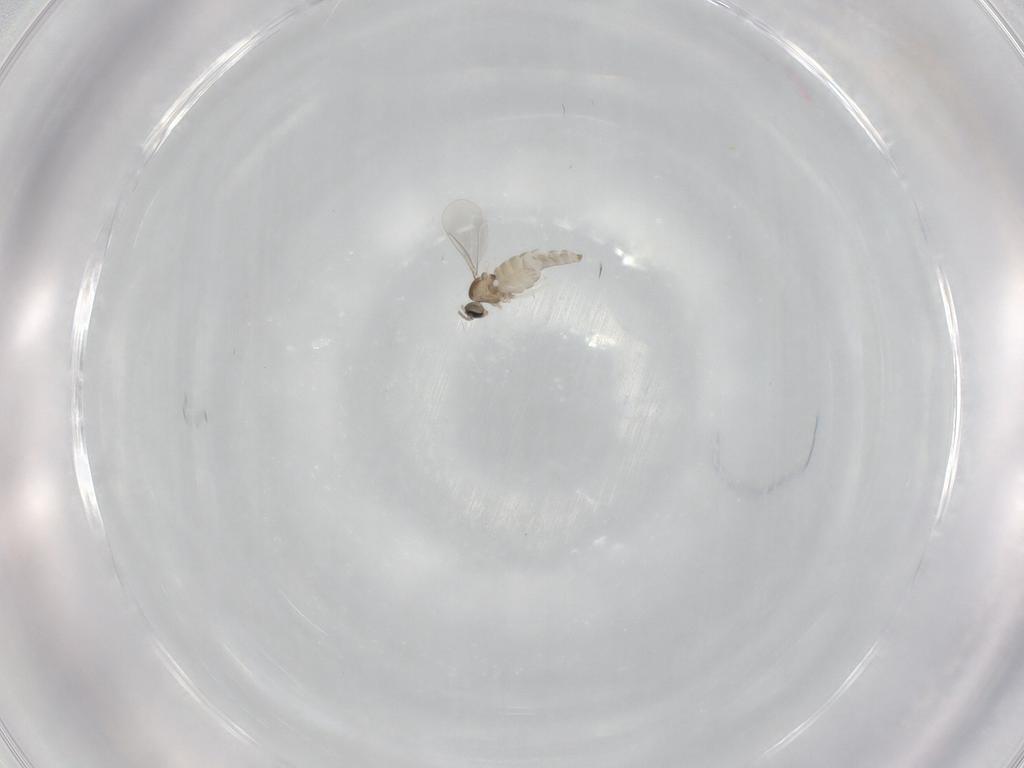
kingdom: Animalia
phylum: Arthropoda
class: Insecta
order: Diptera
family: Cecidomyiidae
